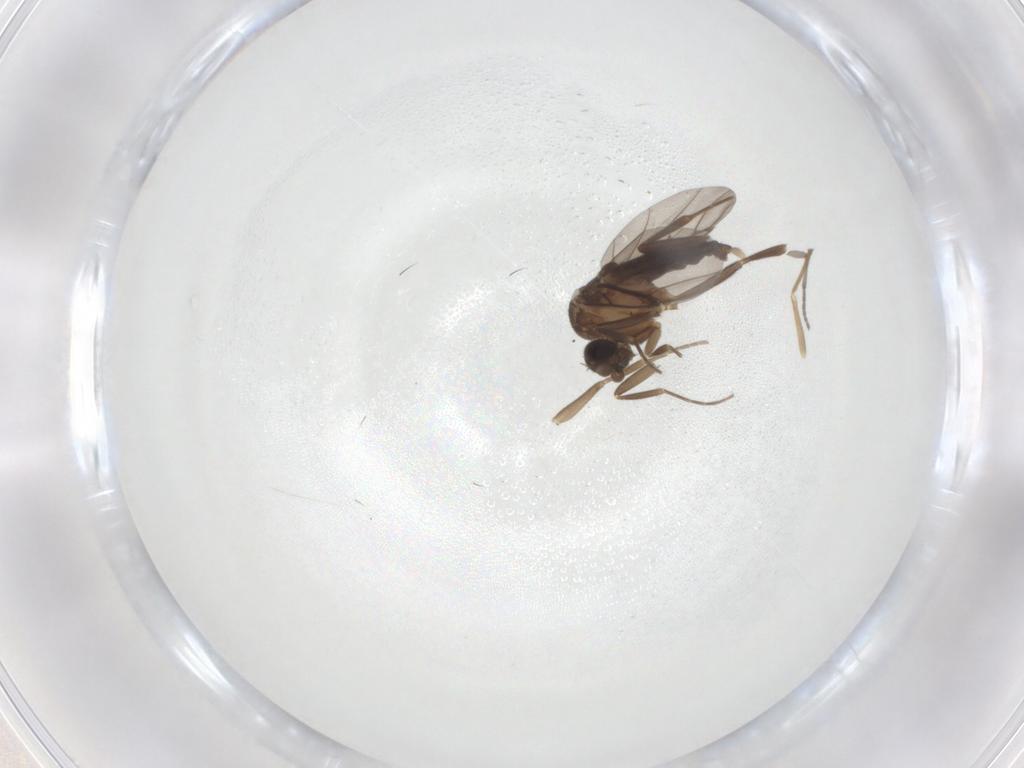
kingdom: Animalia
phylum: Arthropoda
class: Insecta
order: Diptera
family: Sciaridae
